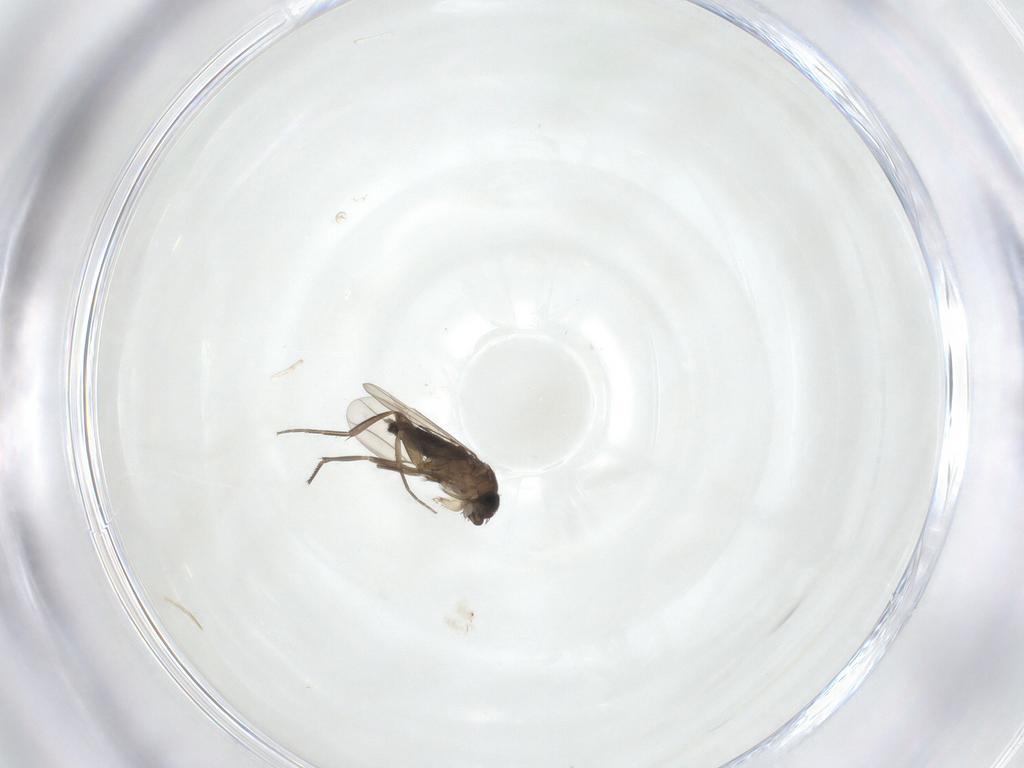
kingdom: Animalia
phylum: Arthropoda
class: Insecta
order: Diptera
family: Phoridae
